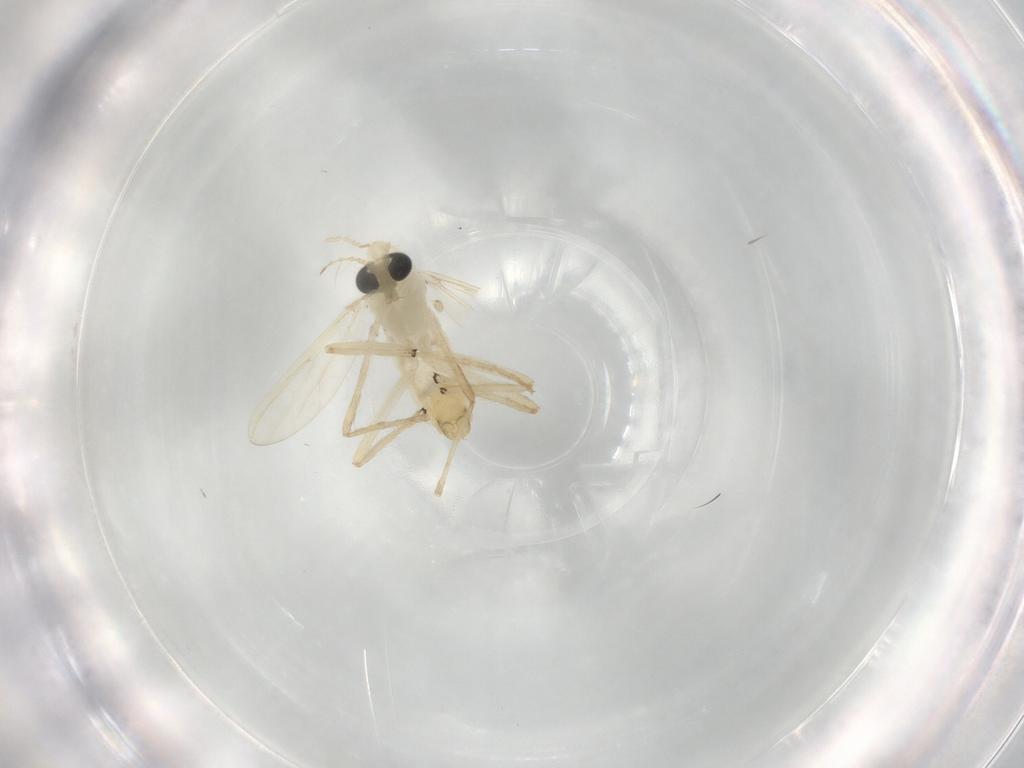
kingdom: Animalia
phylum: Arthropoda
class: Insecta
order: Diptera
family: Chironomidae
